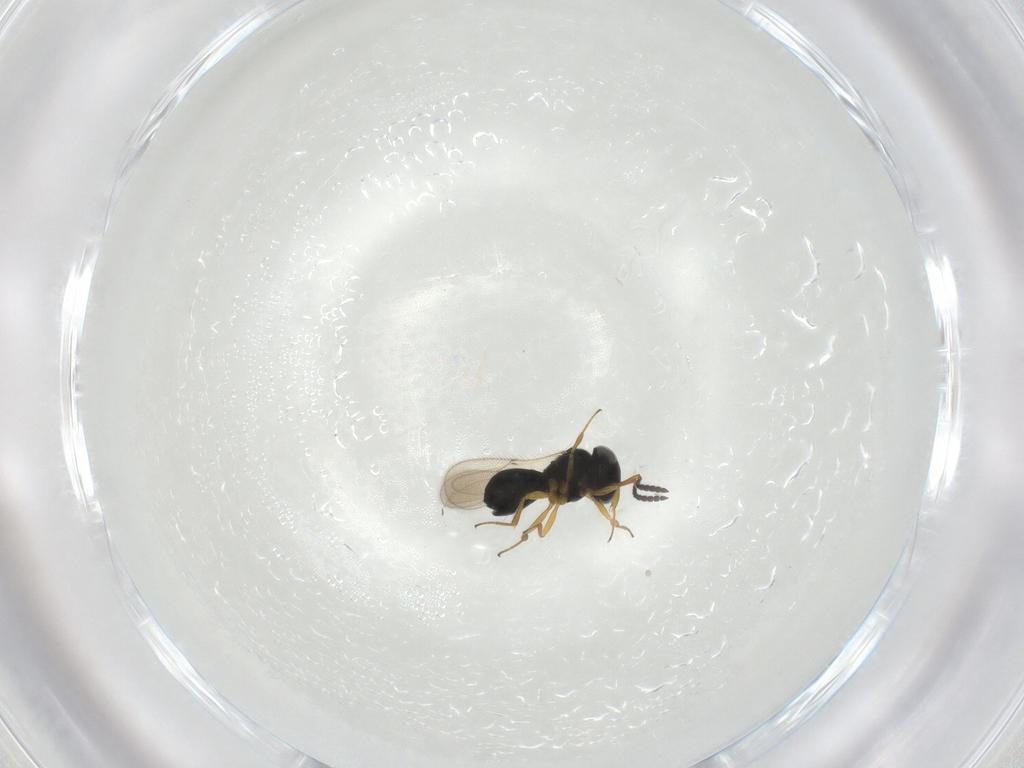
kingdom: Animalia
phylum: Arthropoda
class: Insecta
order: Hymenoptera
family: Scelionidae
